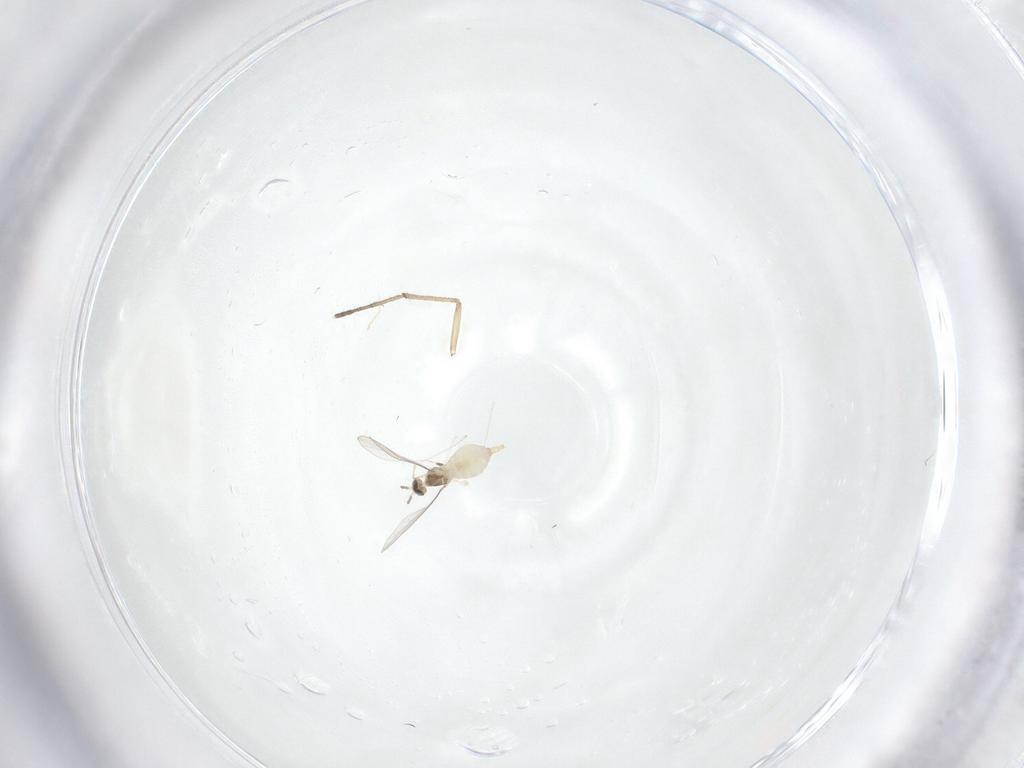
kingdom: Animalia
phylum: Arthropoda
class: Insecta
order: Diptera
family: Cecidomyiidae
